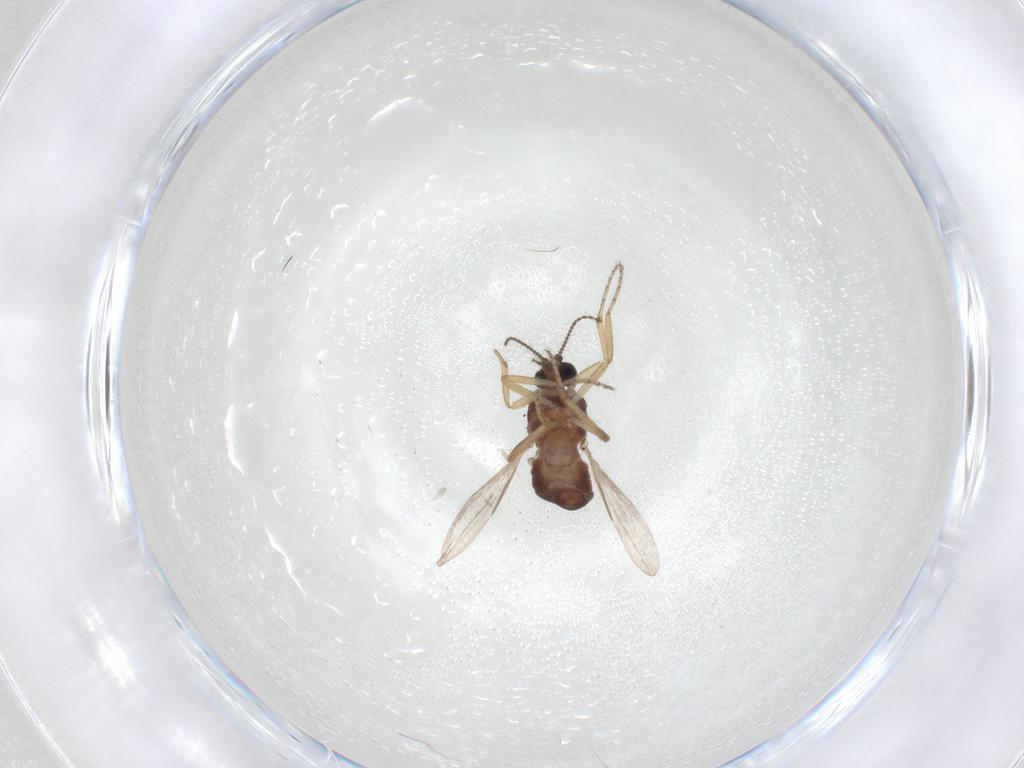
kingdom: Animalia
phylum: Arthropoda
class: Insecta
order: Diptera
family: Ceratopogonidae
